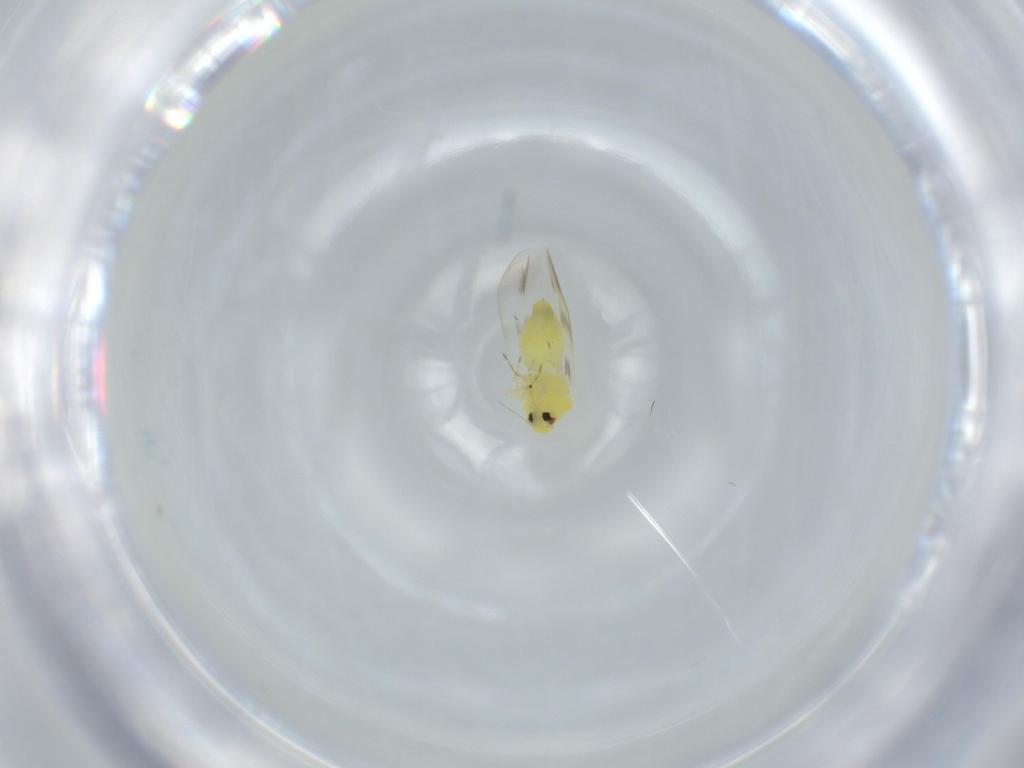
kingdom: Animalia
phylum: Arthropoda
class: Insecta
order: Hemiptera
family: Aleyrodidae
